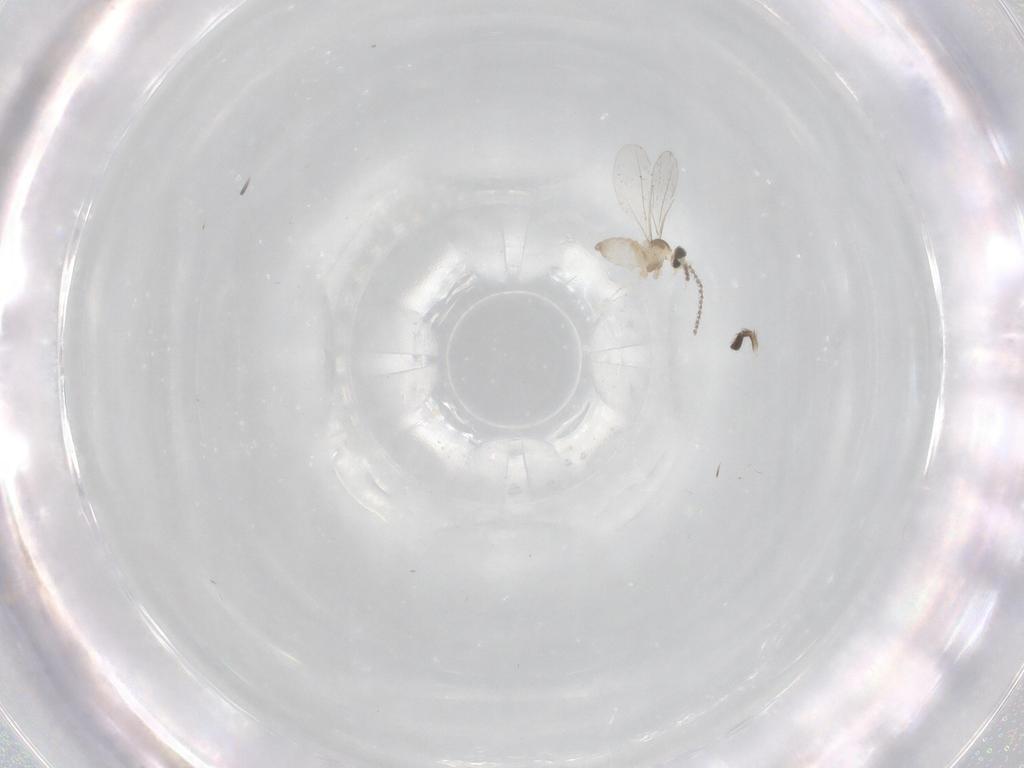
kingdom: Animalia
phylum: Arthropoda
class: Insecta
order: Diptera
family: Cecidomyiidae
